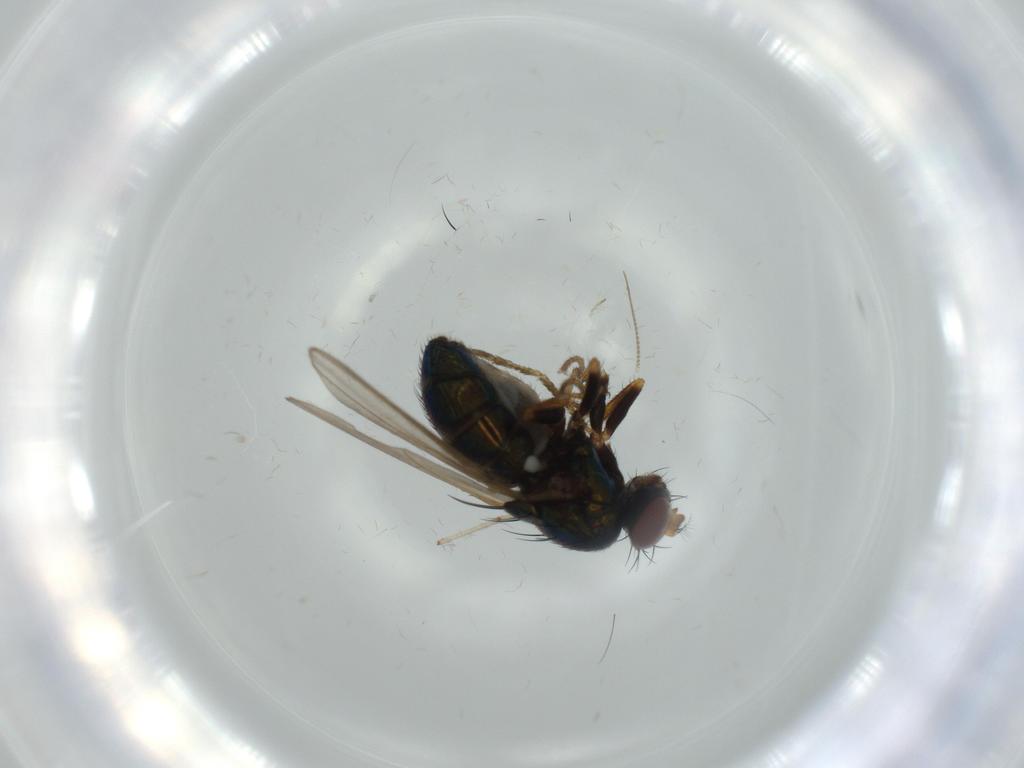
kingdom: Animalia
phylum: Arthropoda
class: Insecta
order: Diptera
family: Ephydridae
